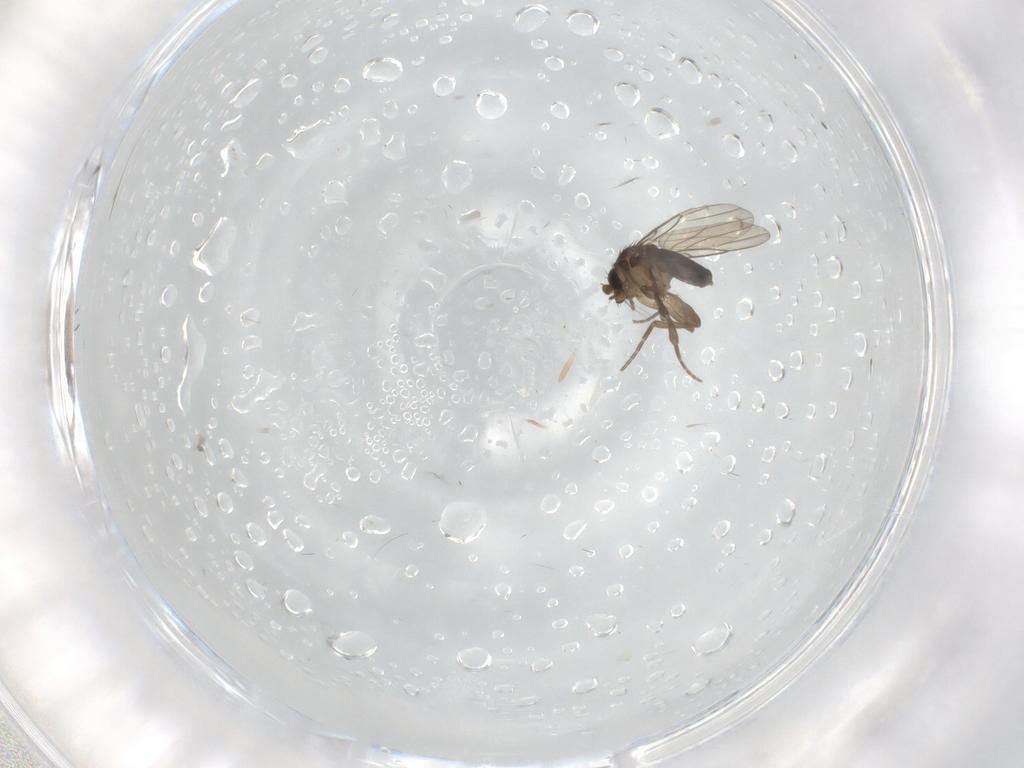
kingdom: Animalia
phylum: Arthropoda
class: Insecta
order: Diptera
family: Phoridae
